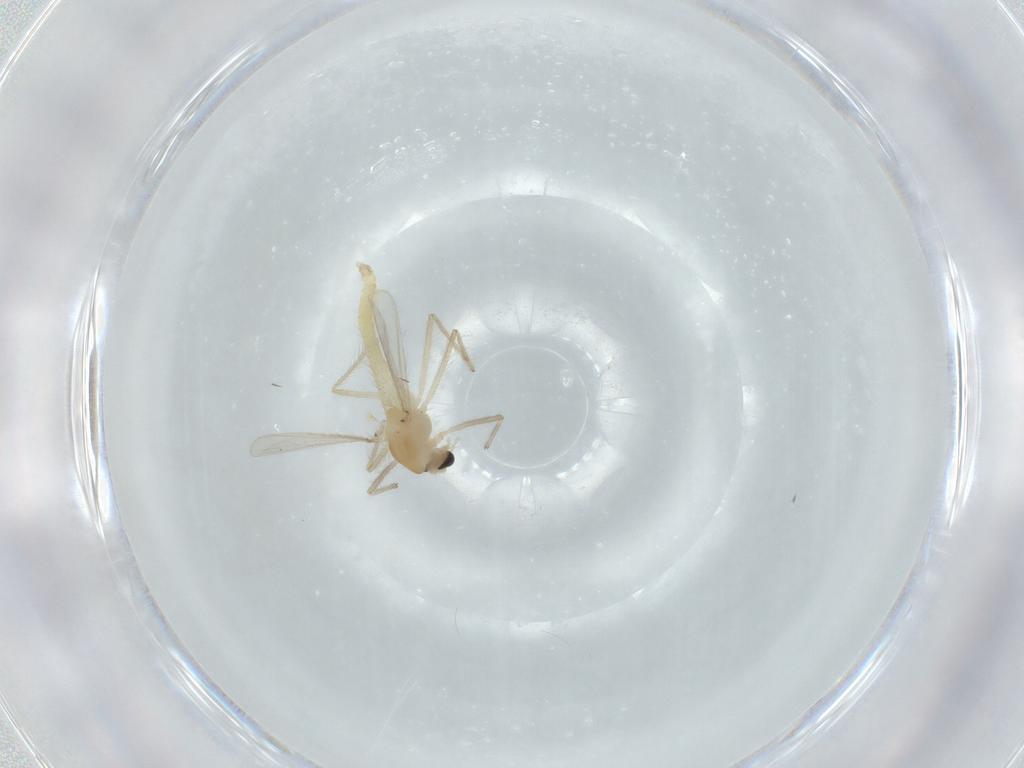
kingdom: Animalia
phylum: Arthropoda
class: Insecta
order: Diptera
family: Chironomidae
